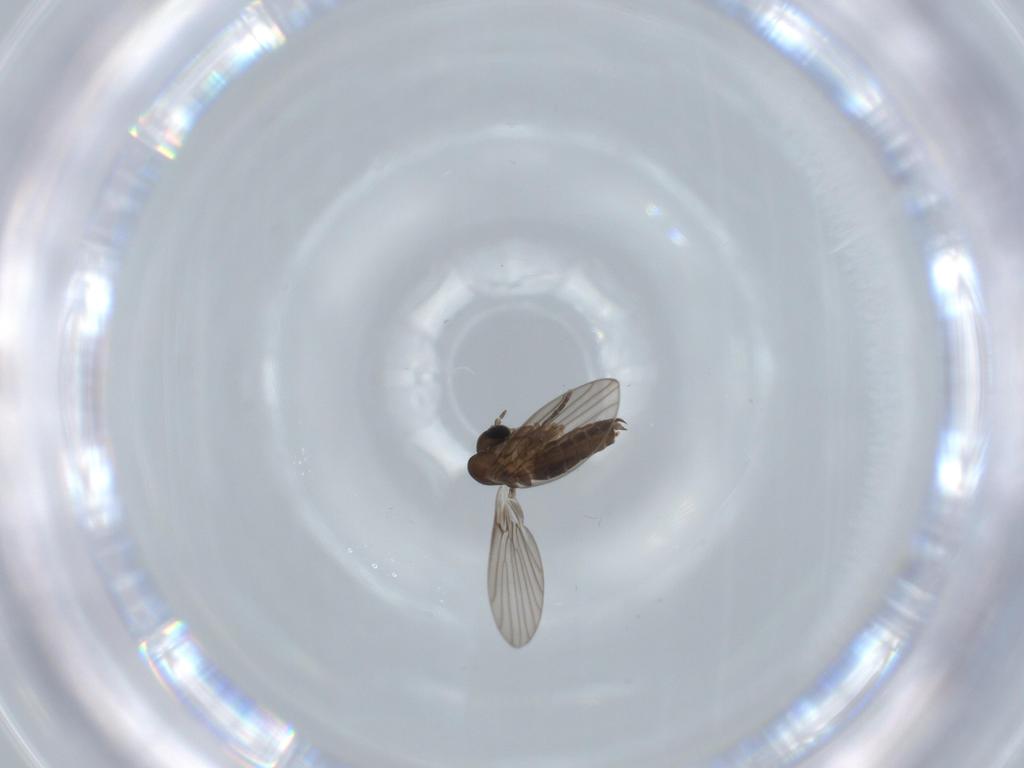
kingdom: Animalia
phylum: Arthropoda
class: Insecta
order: Diptera
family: Psychodidae
